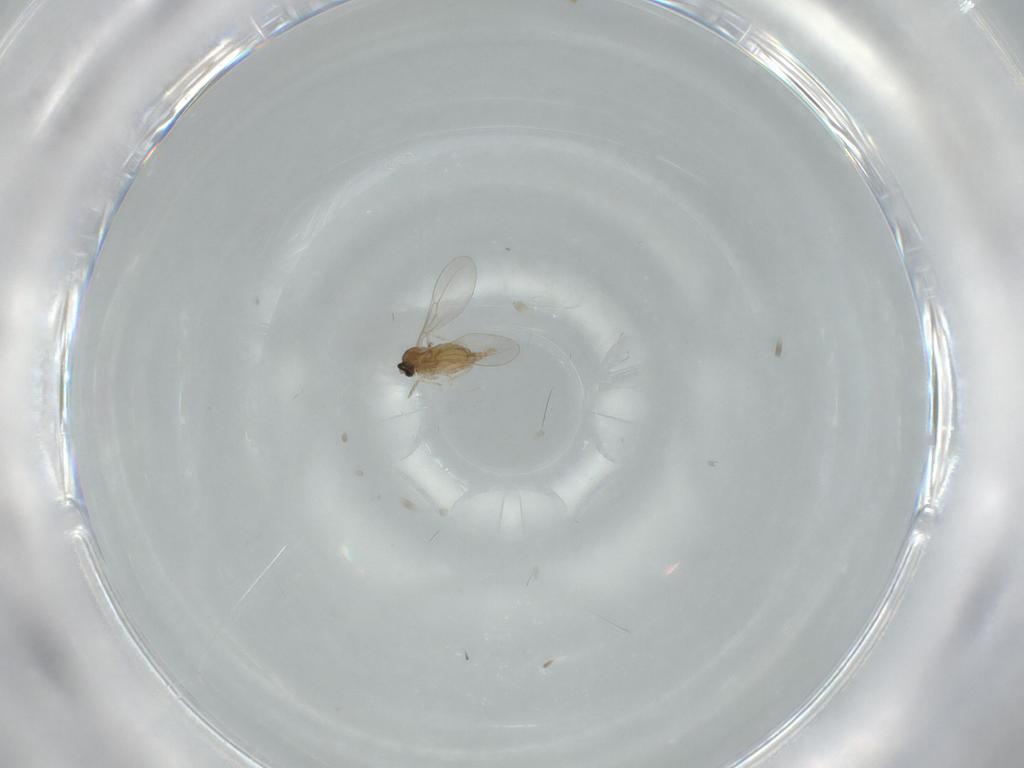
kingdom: Animalia
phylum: Arthropoda
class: Insecta
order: Diptera
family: Cecidomyiidae
